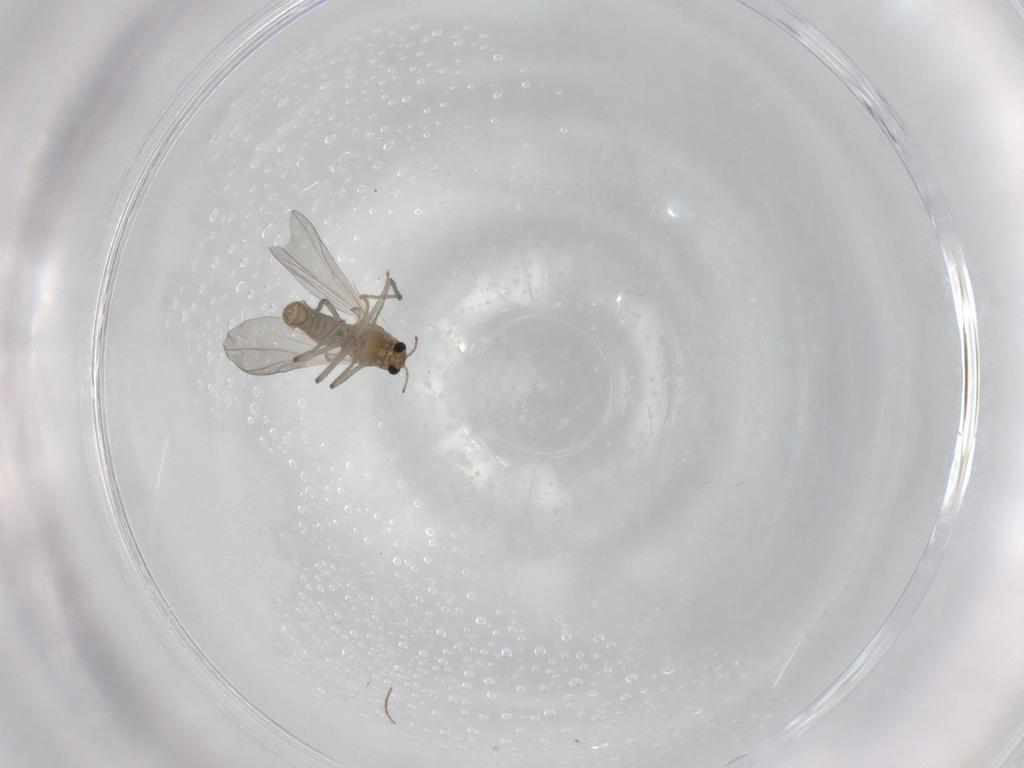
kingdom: Animalia
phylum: Arthropoda
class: Insecta
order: Diptera
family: Chironomidae
